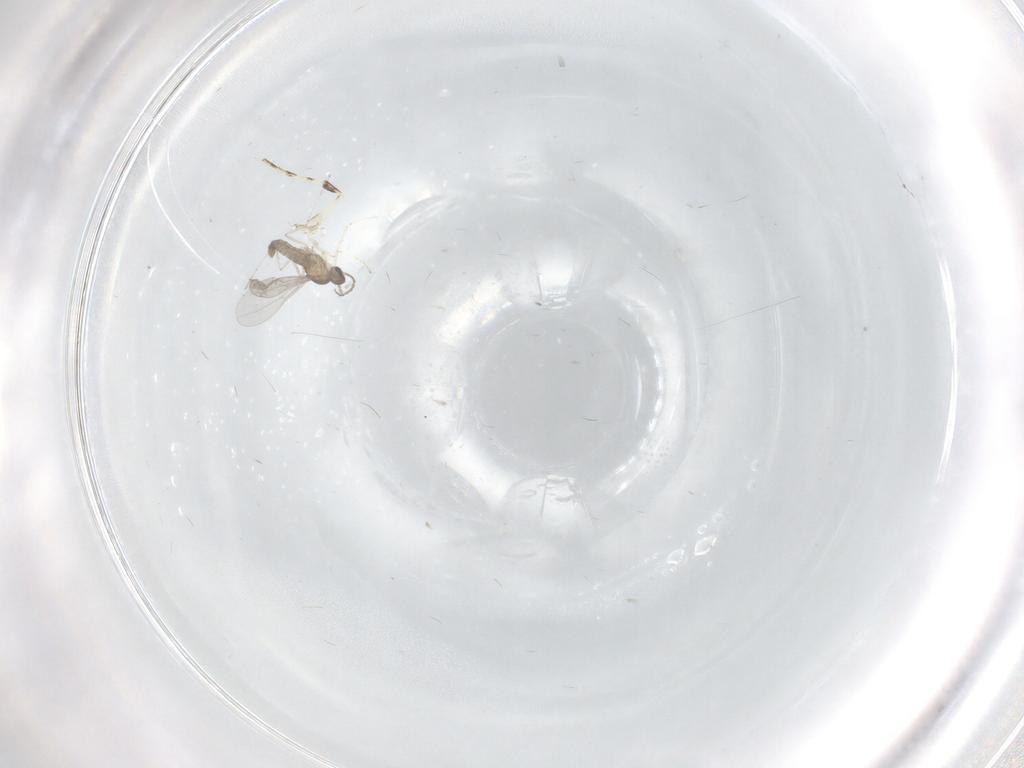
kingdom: Animalia
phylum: Arthropoda
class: Insecta
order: Diptera
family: Cecidomyiidae
